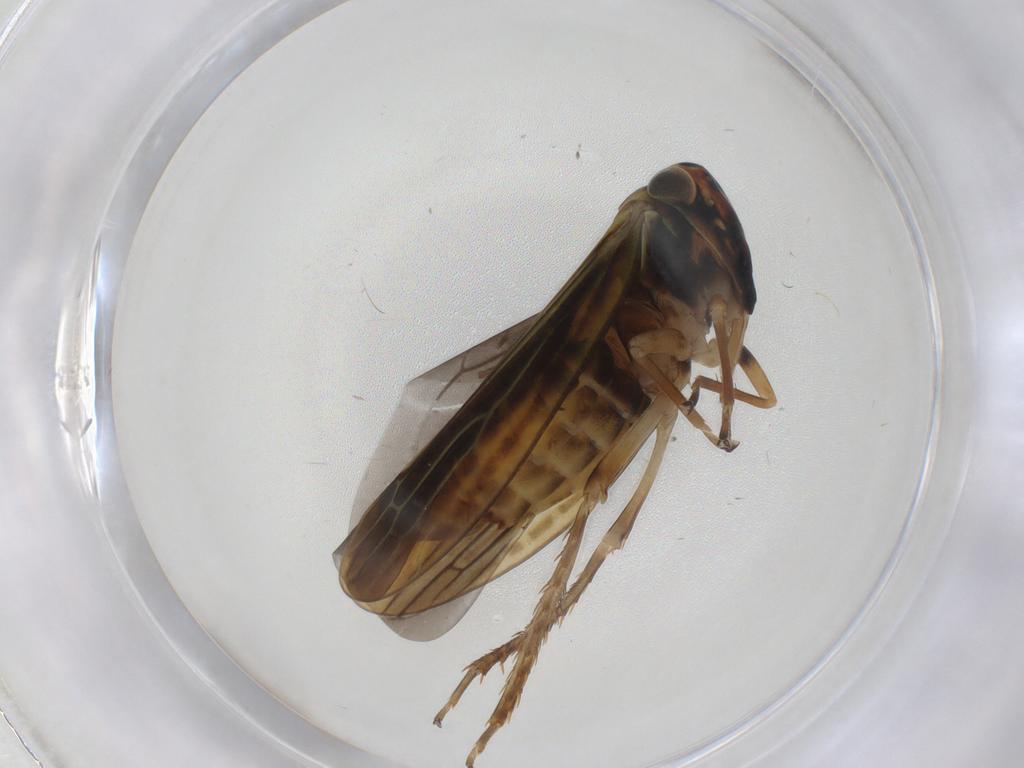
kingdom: Animalia
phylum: Arthropoda
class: Insecta
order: Hemiptera
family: Cicadellidae
